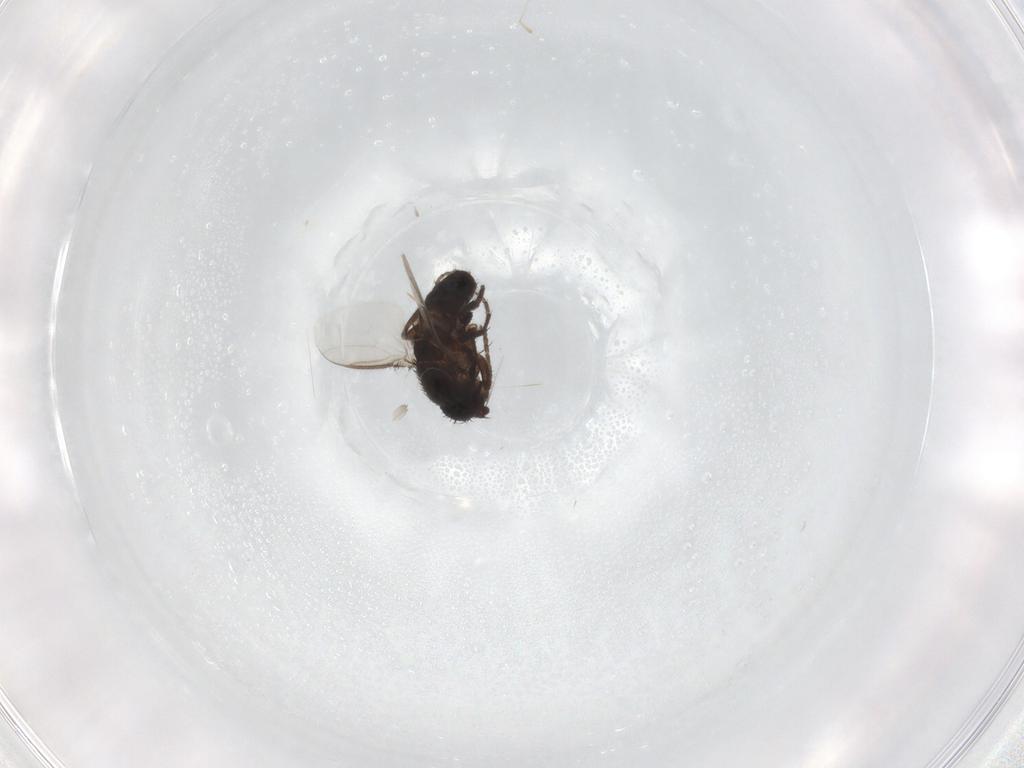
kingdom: Animalia
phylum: Arthropoda
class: Insecta
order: Diptera
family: Sphaeroceridae
